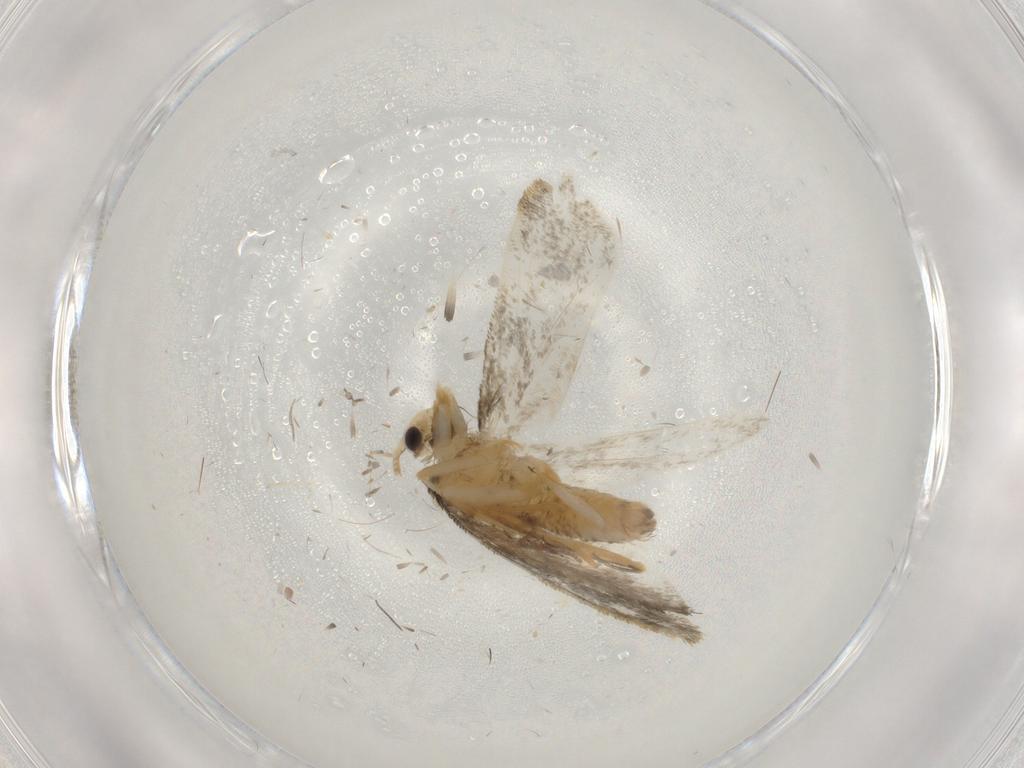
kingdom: Animalia
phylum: Arthropoda
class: Insecta
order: Lepidoptera
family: Psychidae
